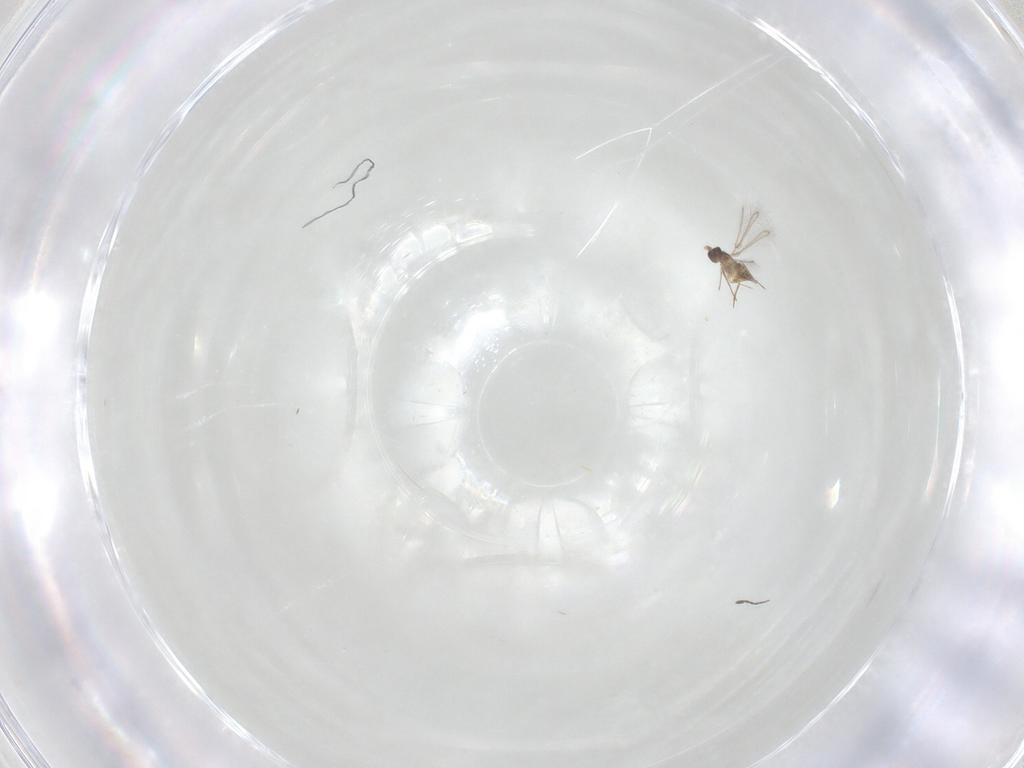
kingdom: Animalia
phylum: Arthropoda
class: Insecta
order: Hymenoptera
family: Mymaridae
